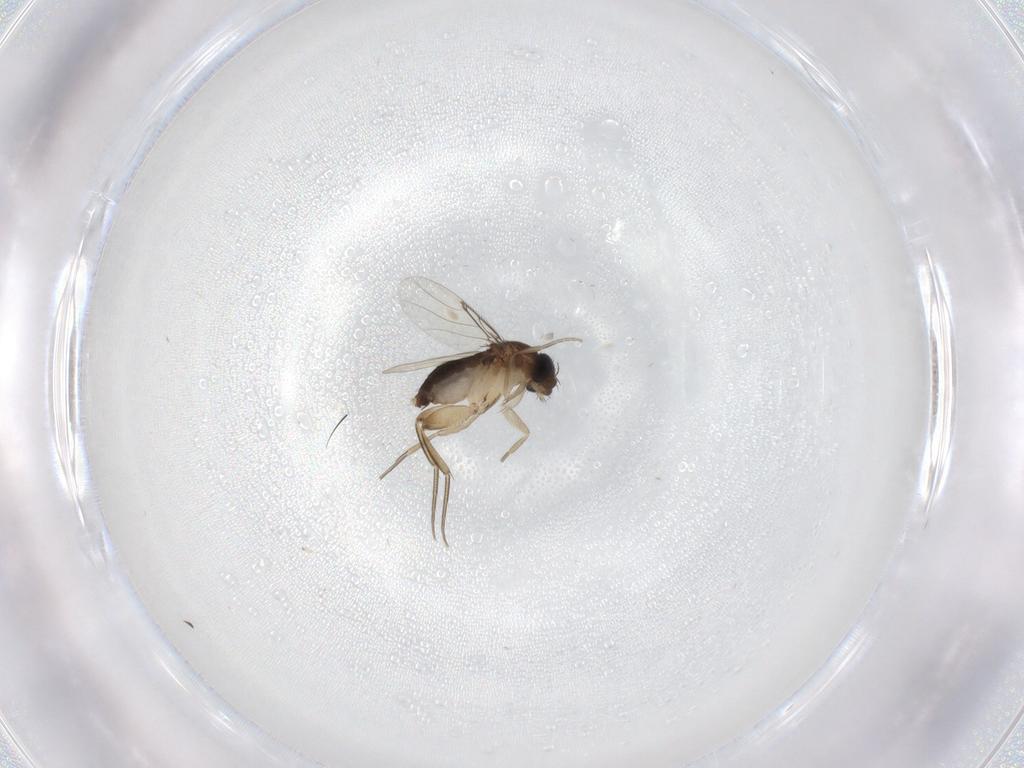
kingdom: Animalia
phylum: Arthropoda
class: Insecta
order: Diptera
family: Phoridae
